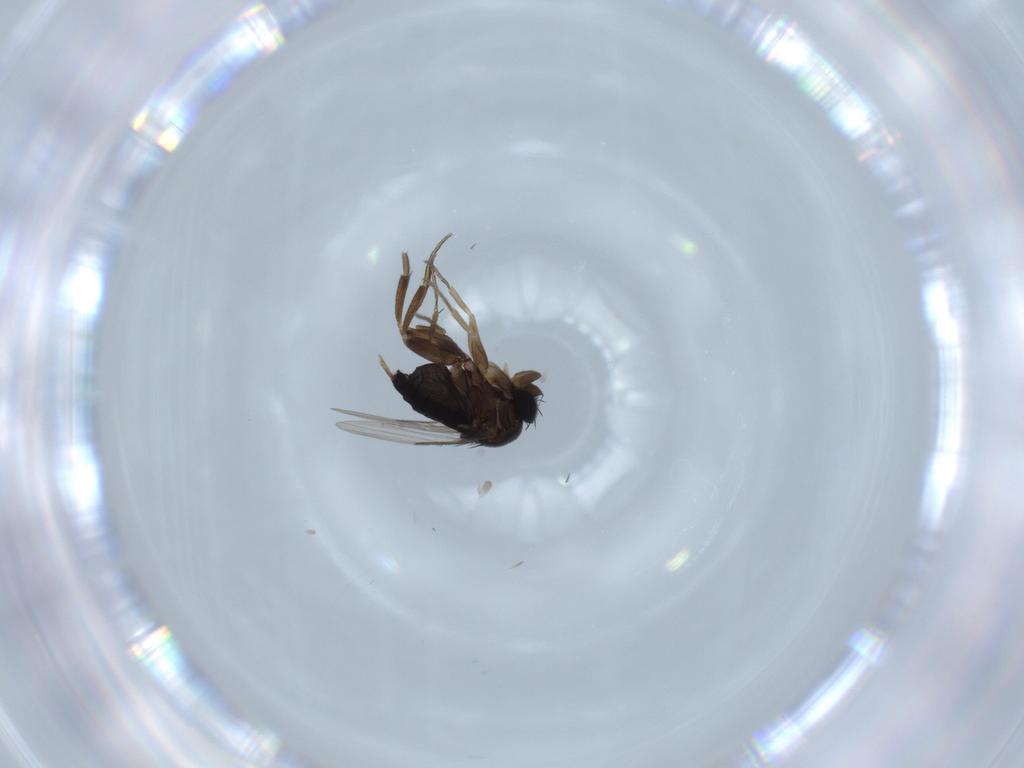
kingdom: Animalia
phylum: Arthropoda
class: Insecta
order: Diptera
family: Phoridae
